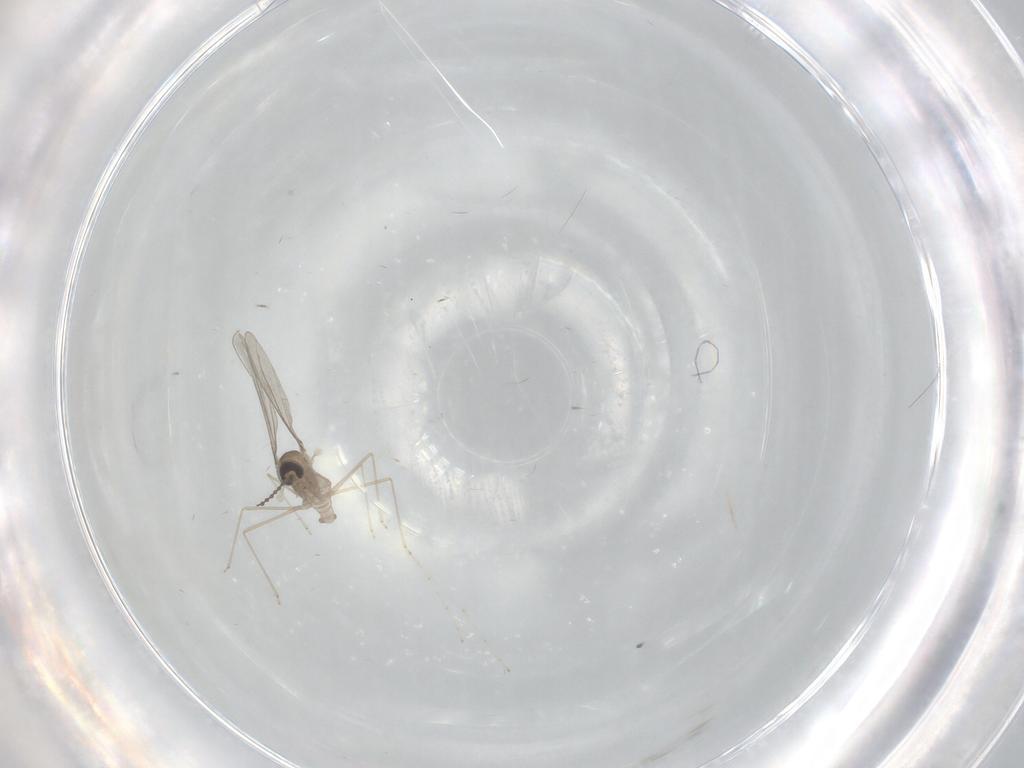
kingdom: Animalia
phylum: Arthropoda
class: Insecta
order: Diptera
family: Cecidomyiidae
